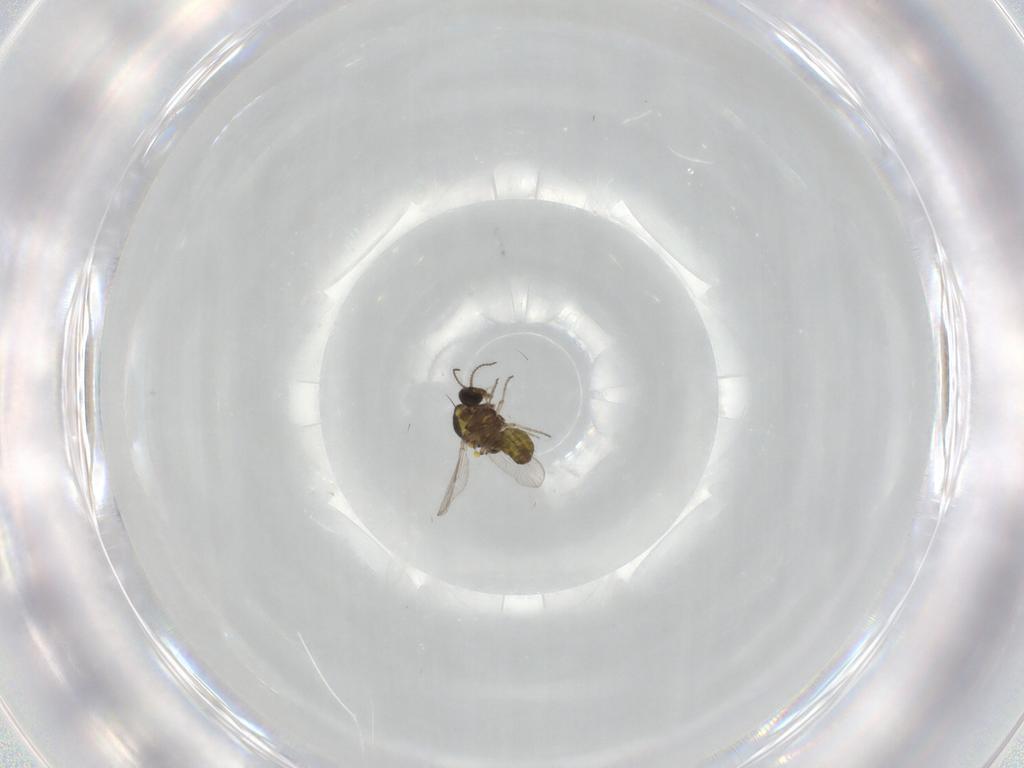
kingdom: Animalia
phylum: Arthropoda
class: Insecta
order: Diptera
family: Ceratopogonidae
